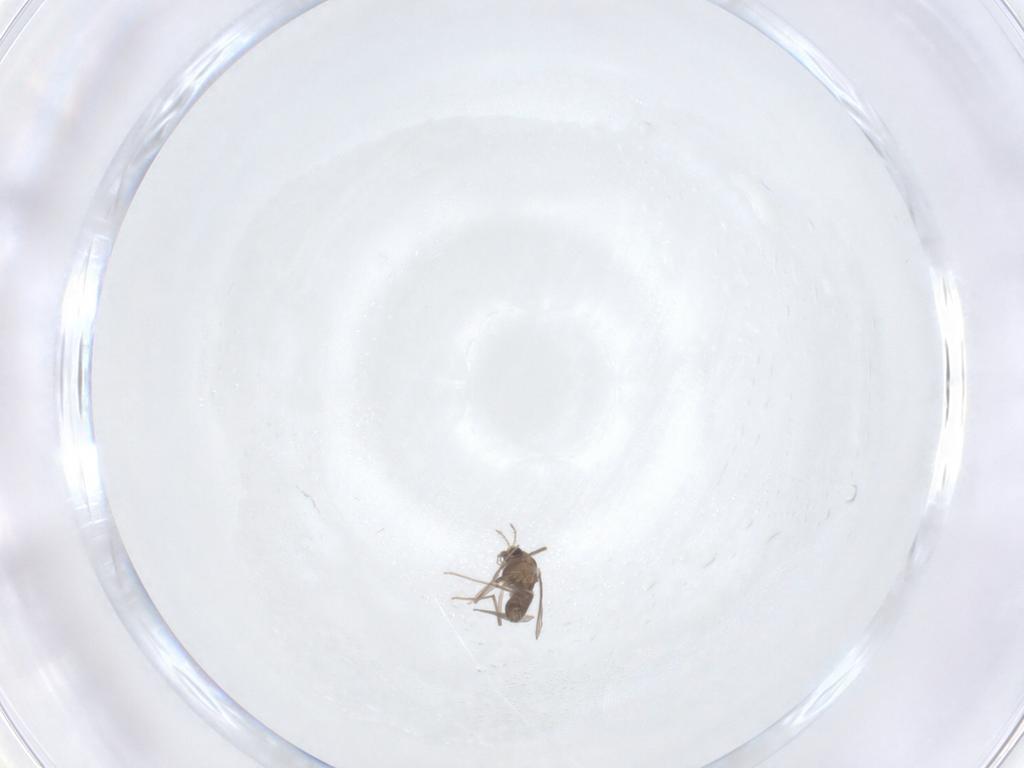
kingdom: Animalia
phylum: Arthropoda
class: Insecta
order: Diptera
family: Chironomidae
